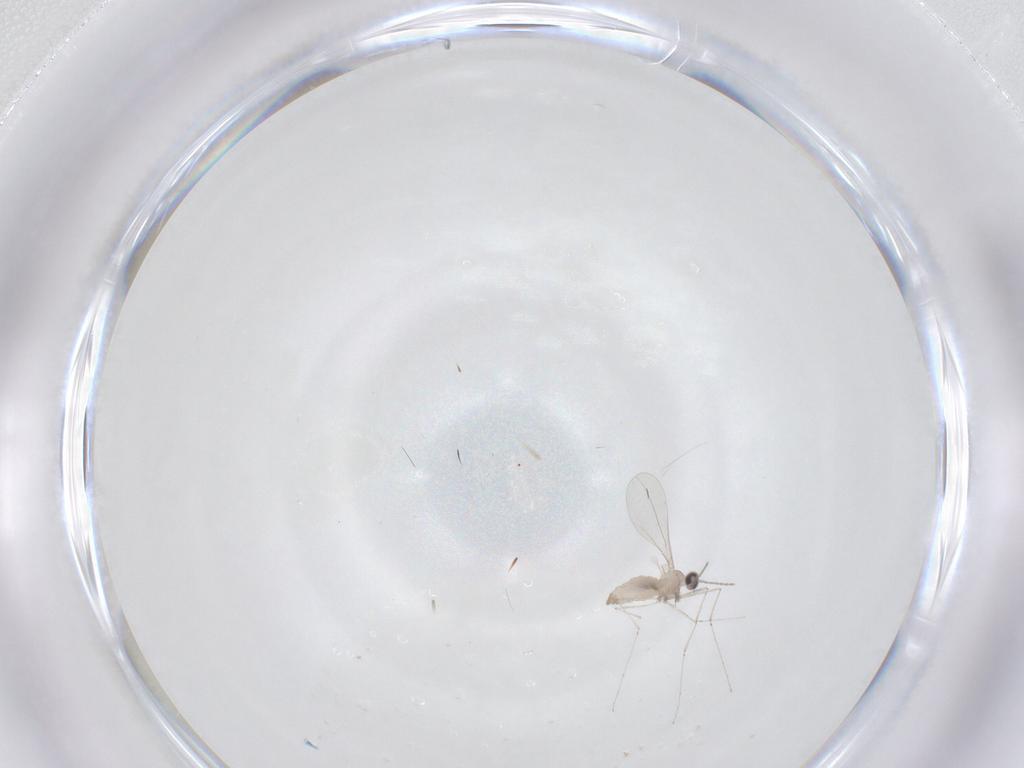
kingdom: Animalia
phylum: Arthropoda
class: Insecta
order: Diptera
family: Cecidomyiidae
